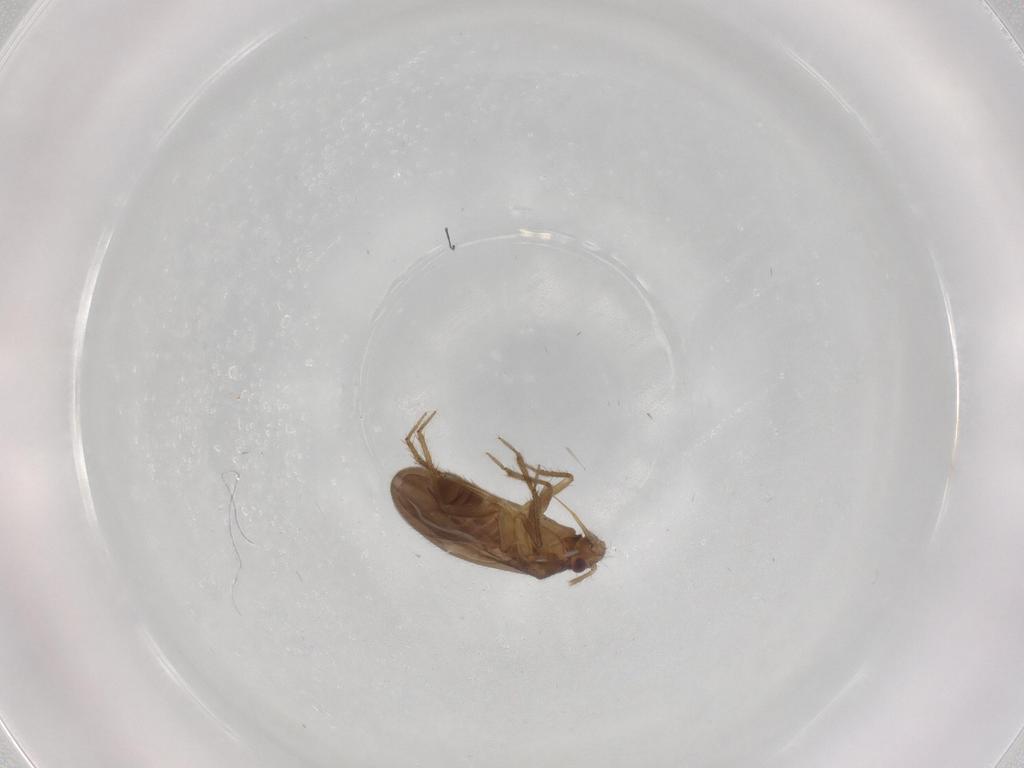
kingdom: Animalia
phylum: Arthropoda
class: Insecta
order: Hemiptera
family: Ceratocombidae
